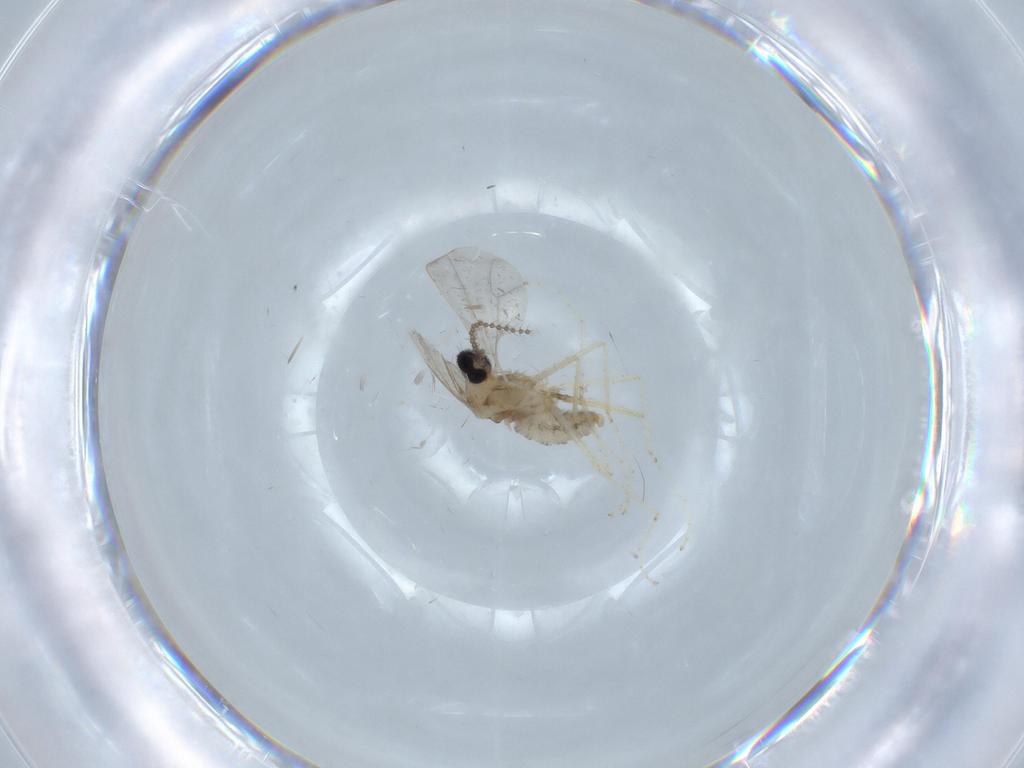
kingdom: Animalia
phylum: Arthropoda
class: Insecta
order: Diptera
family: Cecidomyiidae
